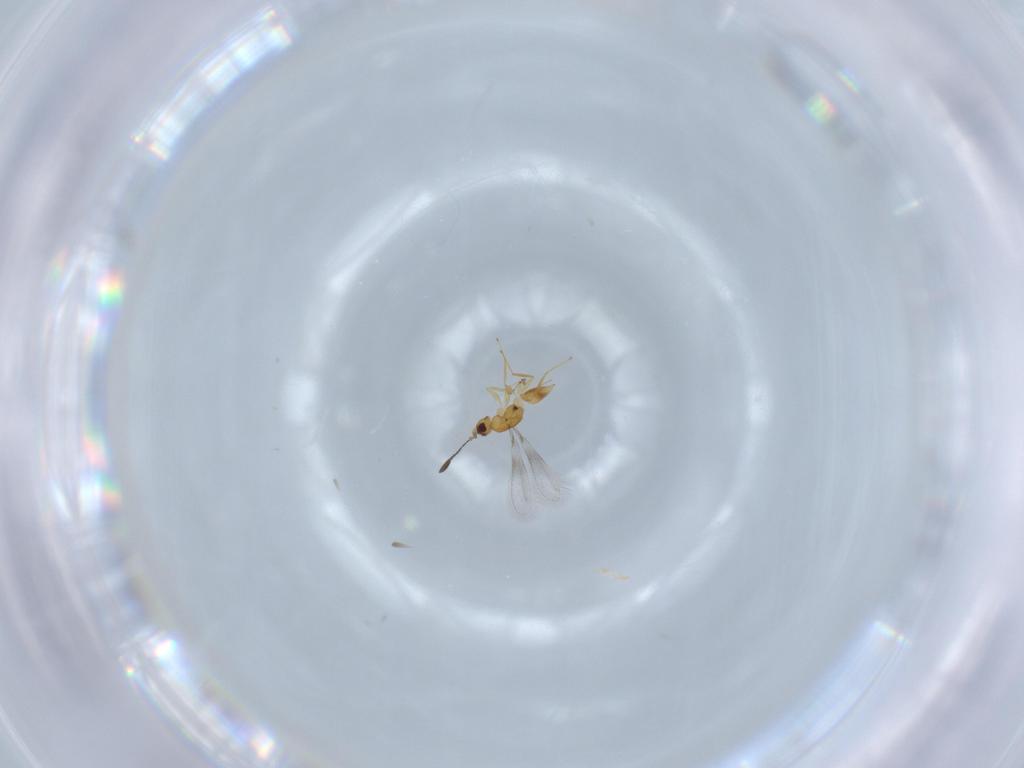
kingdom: Animalia
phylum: Arthropoda
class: Insecta
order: Hymenoptera
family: Mymaridae
